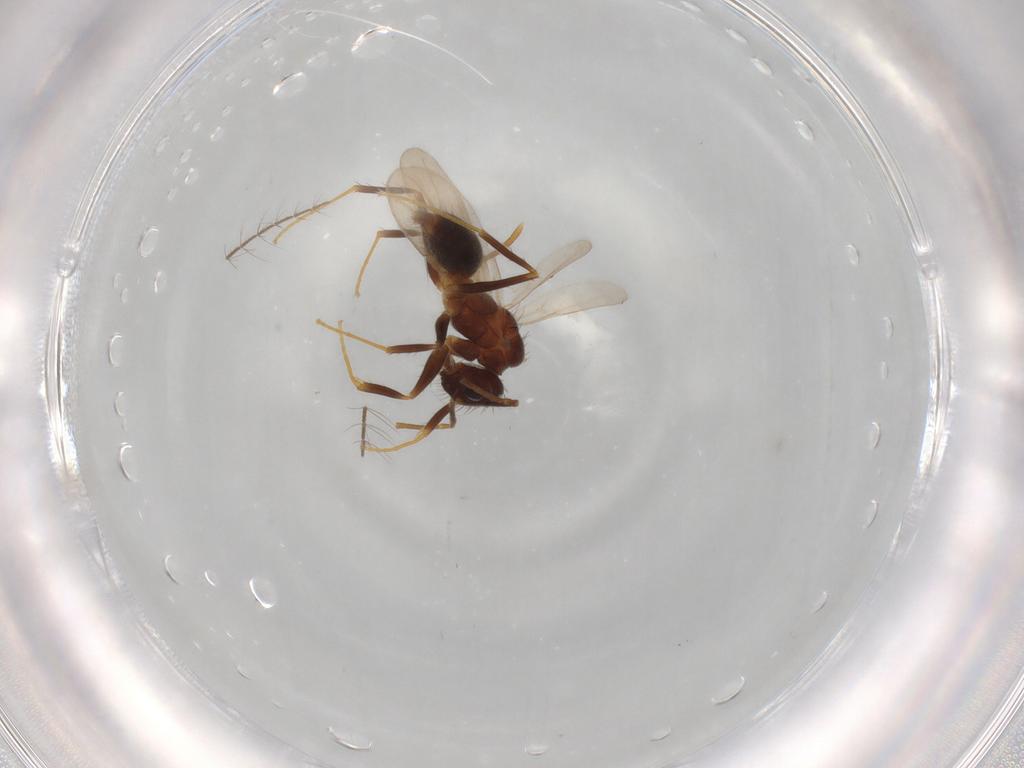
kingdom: Animalia
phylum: Arthropoda
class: Insecta
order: Hymenoptera
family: Formicidae
